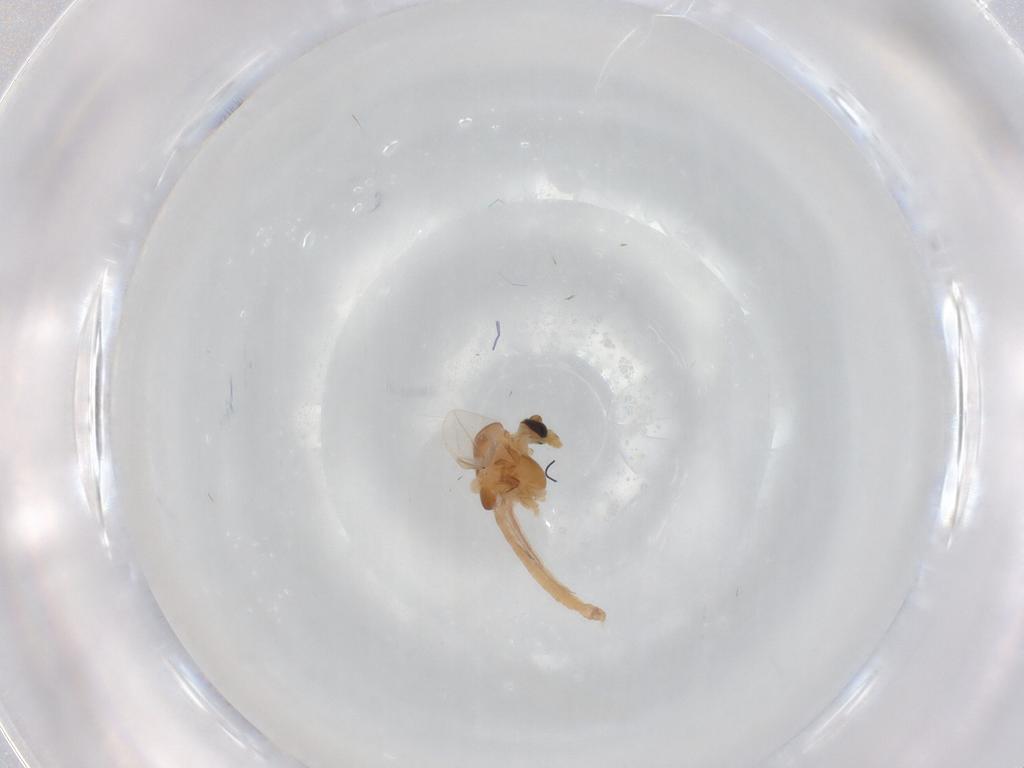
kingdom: Animalia
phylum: Arthropoda
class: Insecta
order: Diptera
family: Chironomidae
